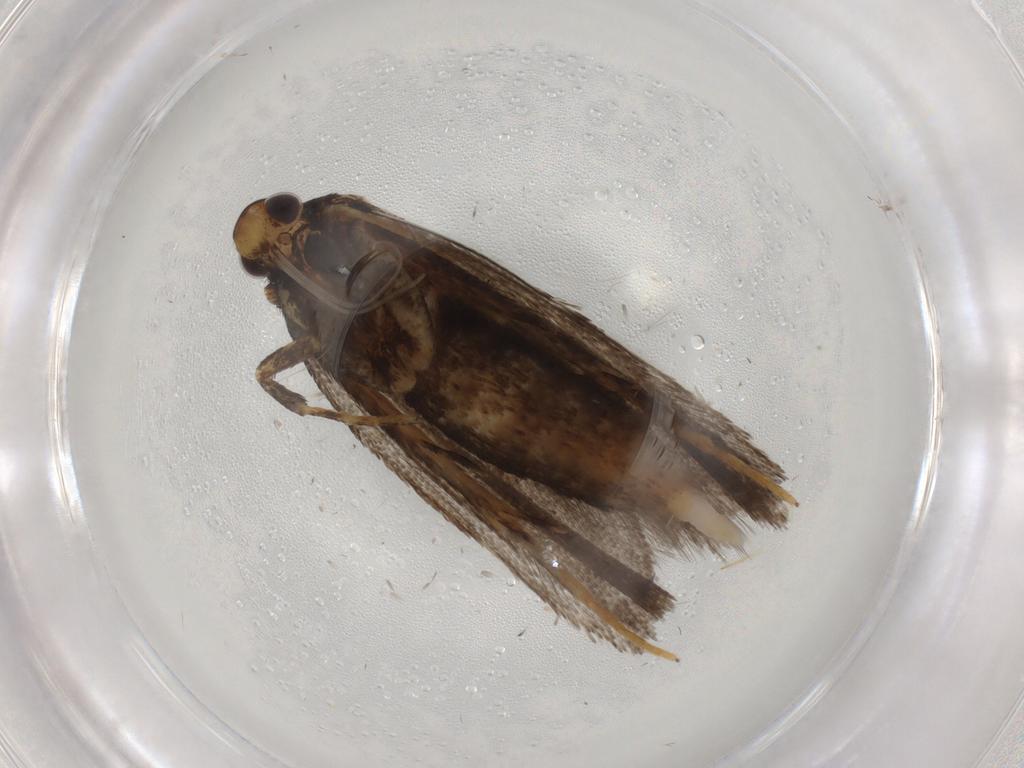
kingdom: Animalia
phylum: Arthropoda
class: Insecta
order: Lepidoptera
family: Lecithoceridae
